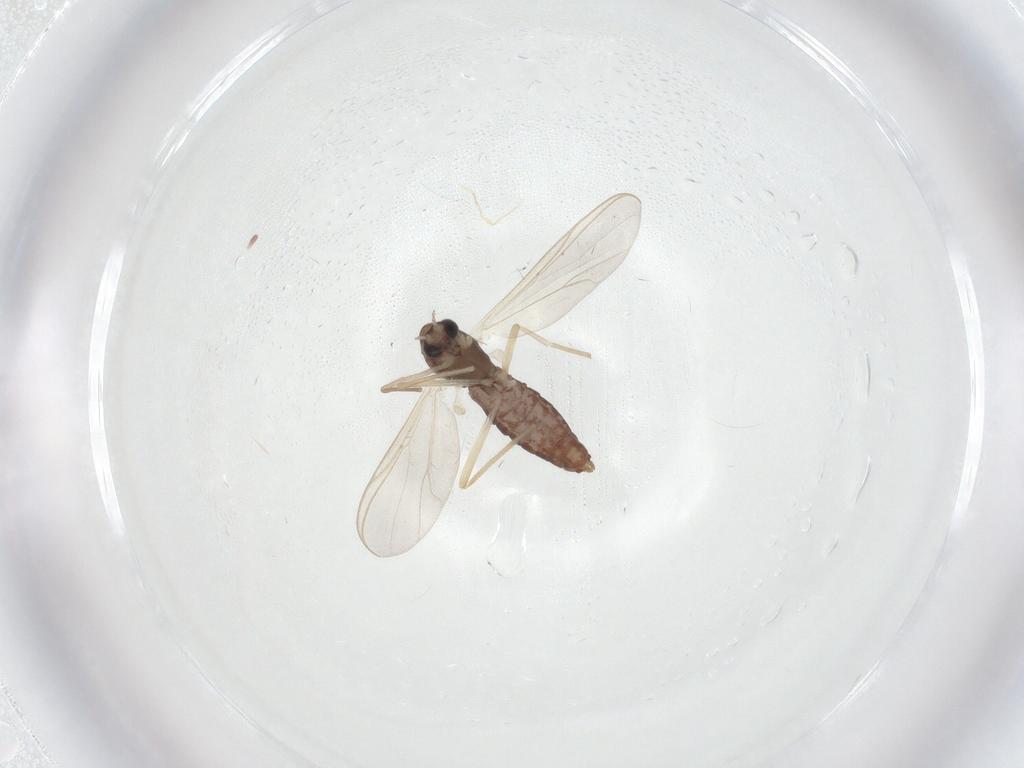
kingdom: Animalia
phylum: Arthropoda
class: Insecta
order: Diptera
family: Chironomidae
